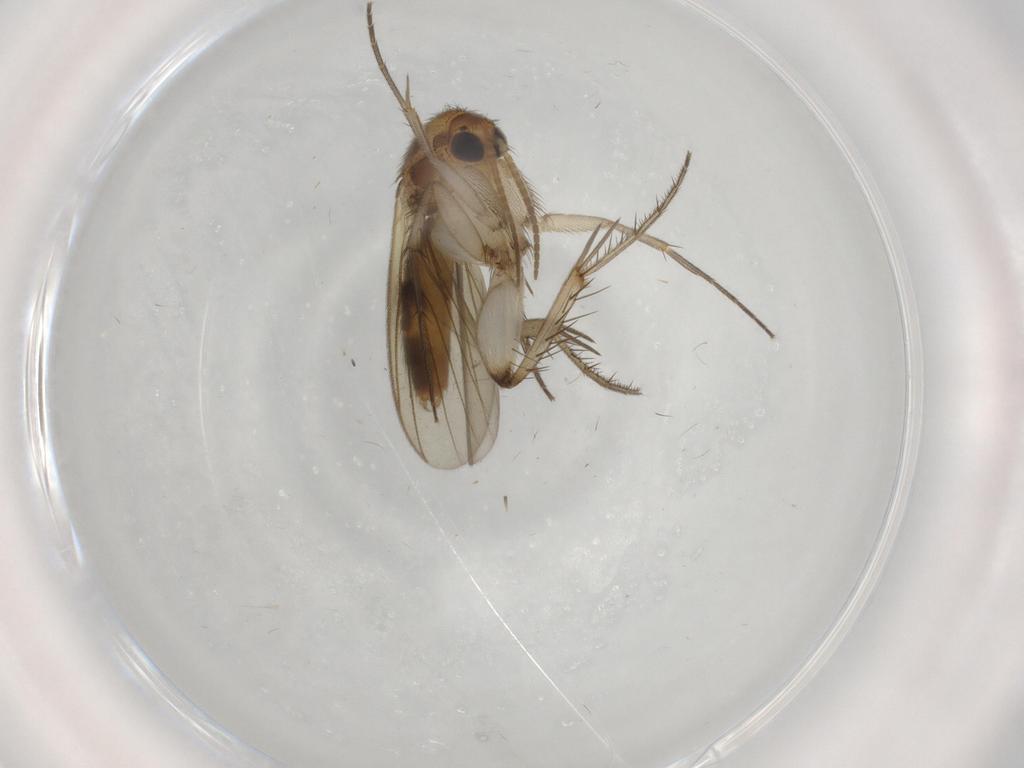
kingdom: Animalia
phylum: Arthropoda
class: Insecta
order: Diptera
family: Mycetophilidae
